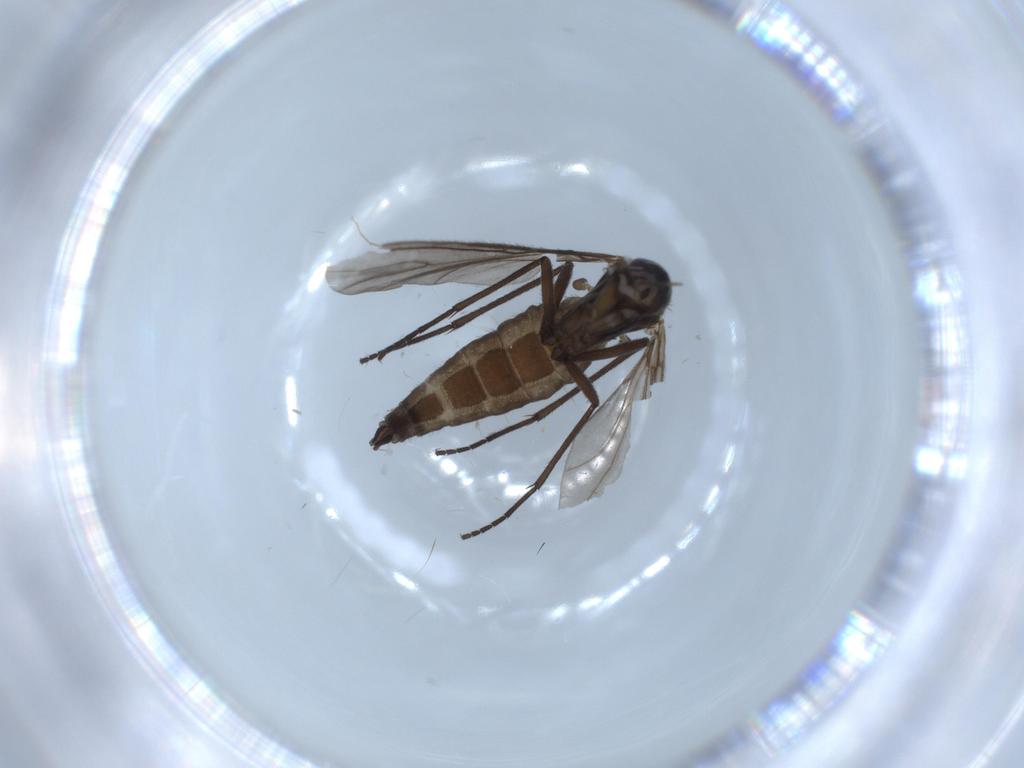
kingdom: Animalia
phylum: Arthropoda
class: Insecta
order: Diptera
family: Sciaridae
